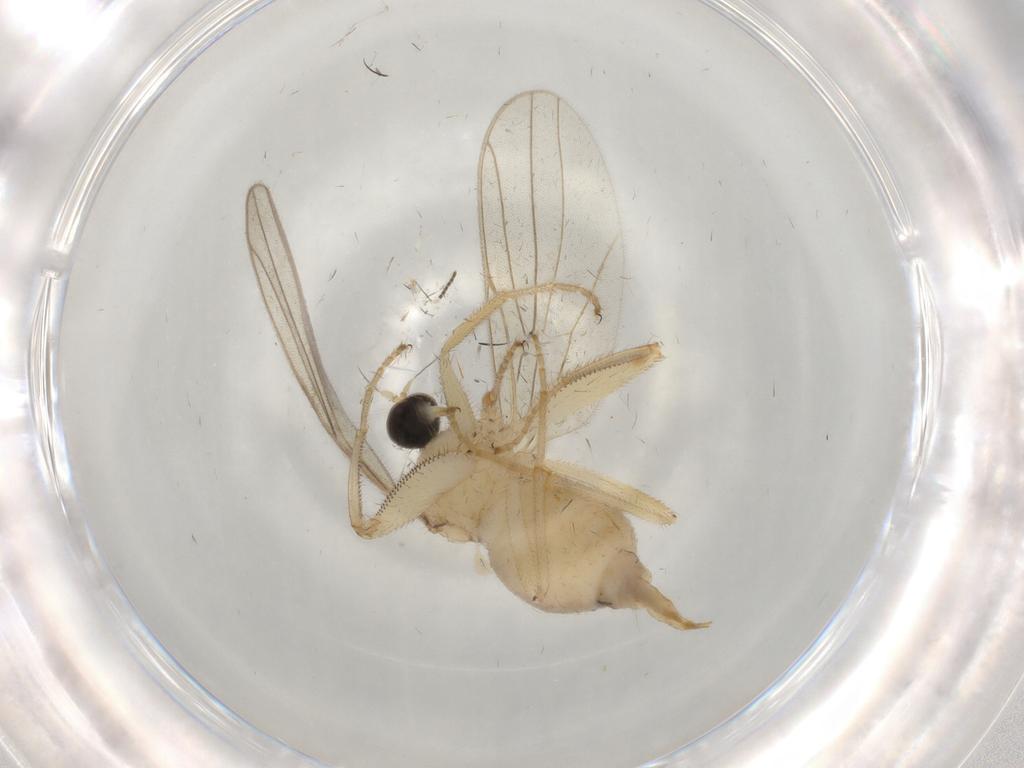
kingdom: Animalia
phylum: Arthropoda
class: Insecta
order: Diptera
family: Hybotidae
